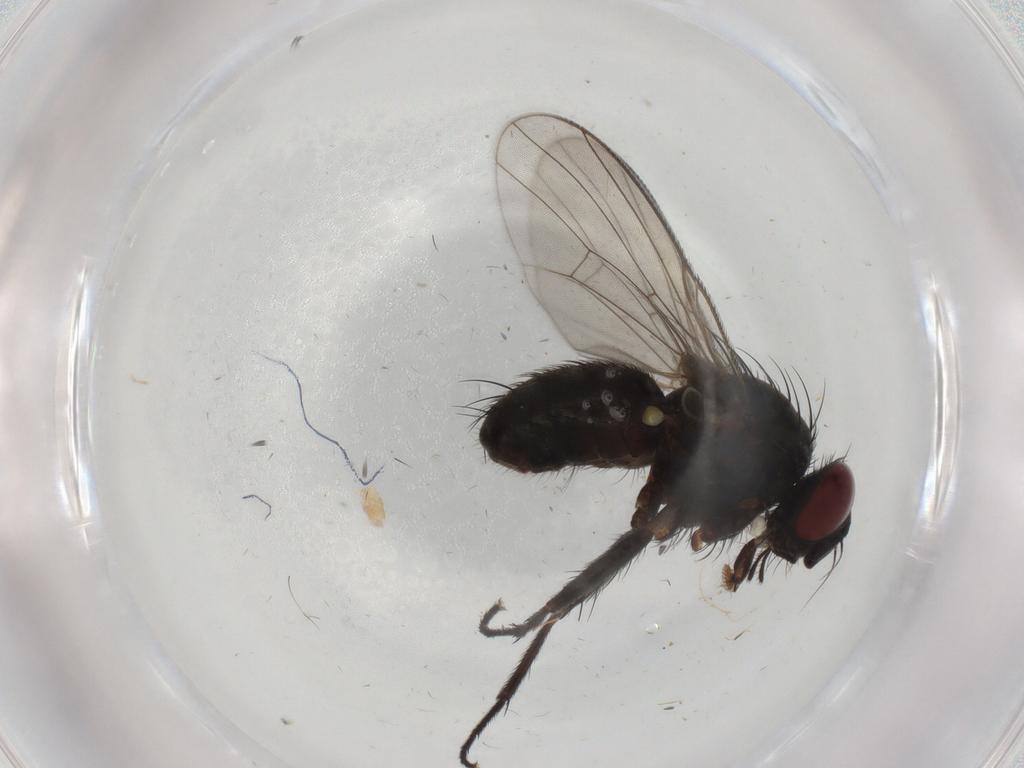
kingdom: Animalia
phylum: Arthropoda
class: Insecta
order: Diptera
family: Muscidae
